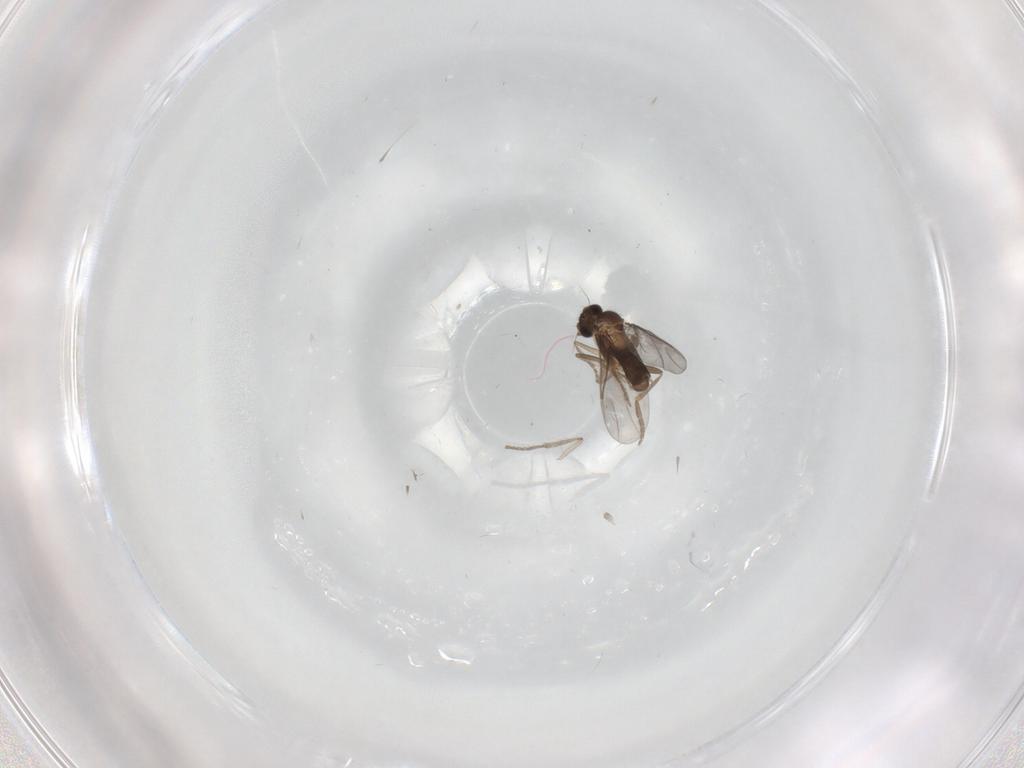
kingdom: Animalia
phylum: Arthropoda
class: Insecta
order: Diptera
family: Psychodidae
